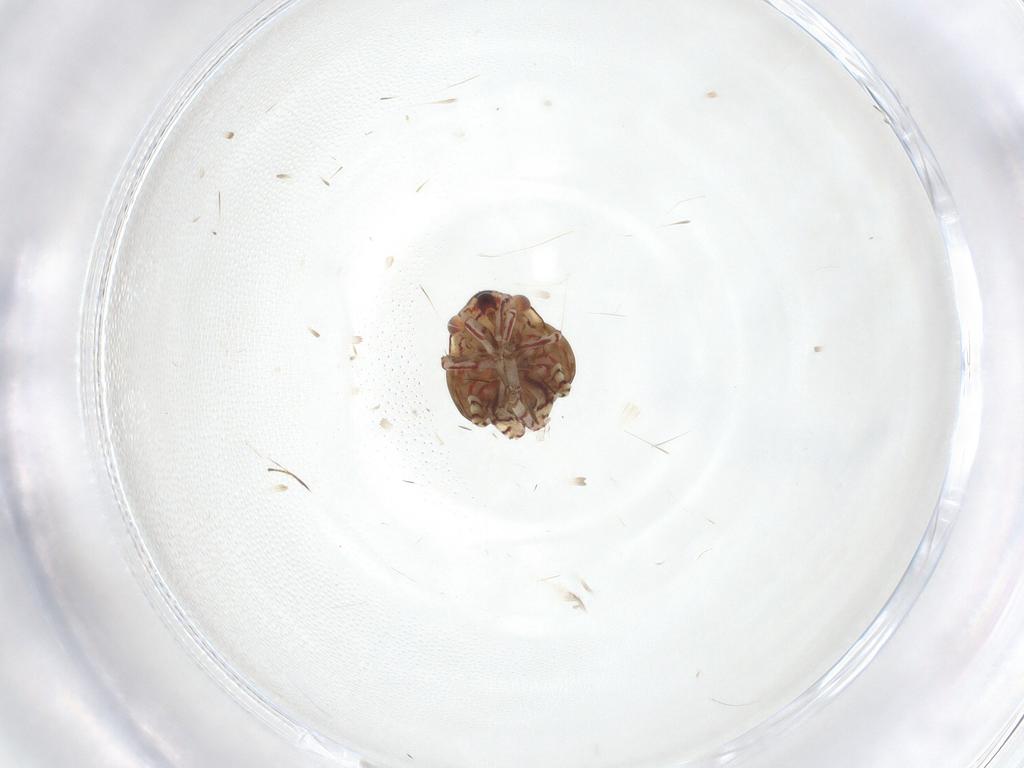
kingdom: Animalia
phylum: Arthropoda
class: Insecta
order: Hemiptera
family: Miridae
